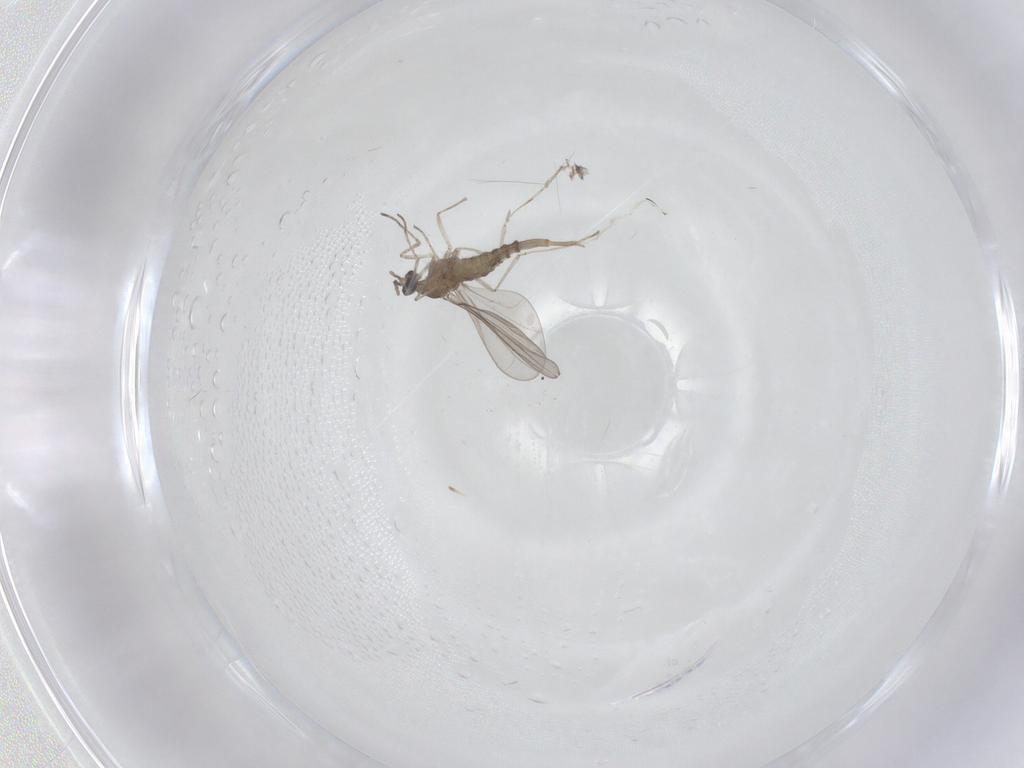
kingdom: Animalia
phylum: Arthropoda
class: Insecta
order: Diptera
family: Cecidomyiidae
